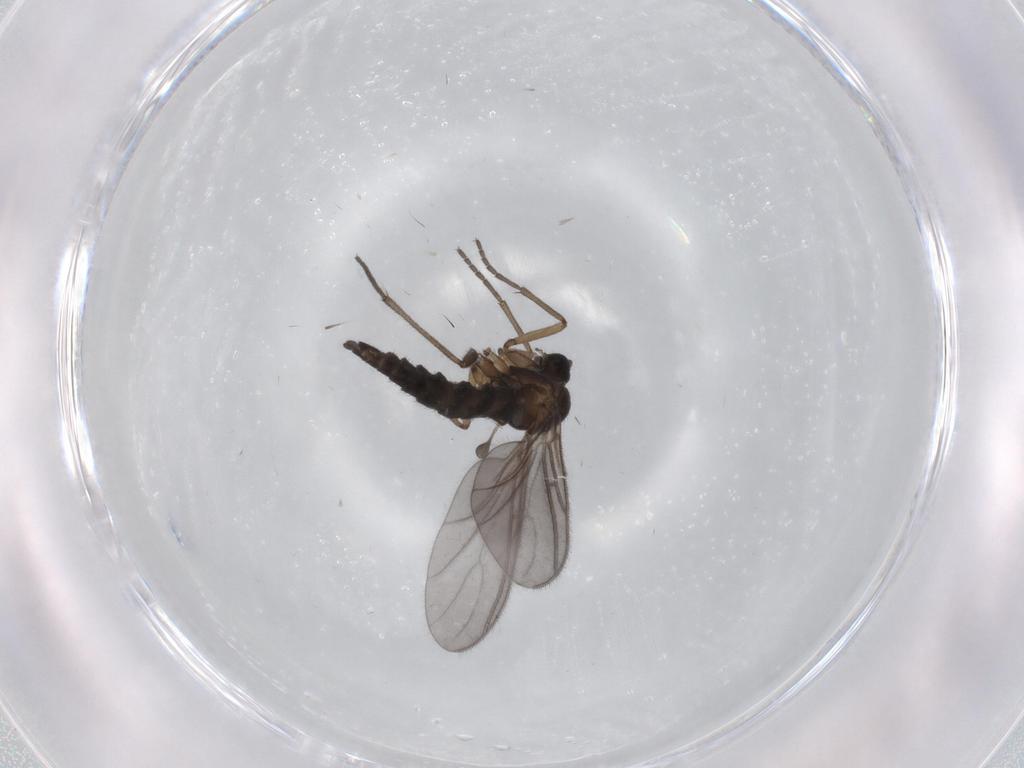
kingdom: Animalia
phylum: Arthropoda
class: Insecta
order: Diptera
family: Sciaridae
